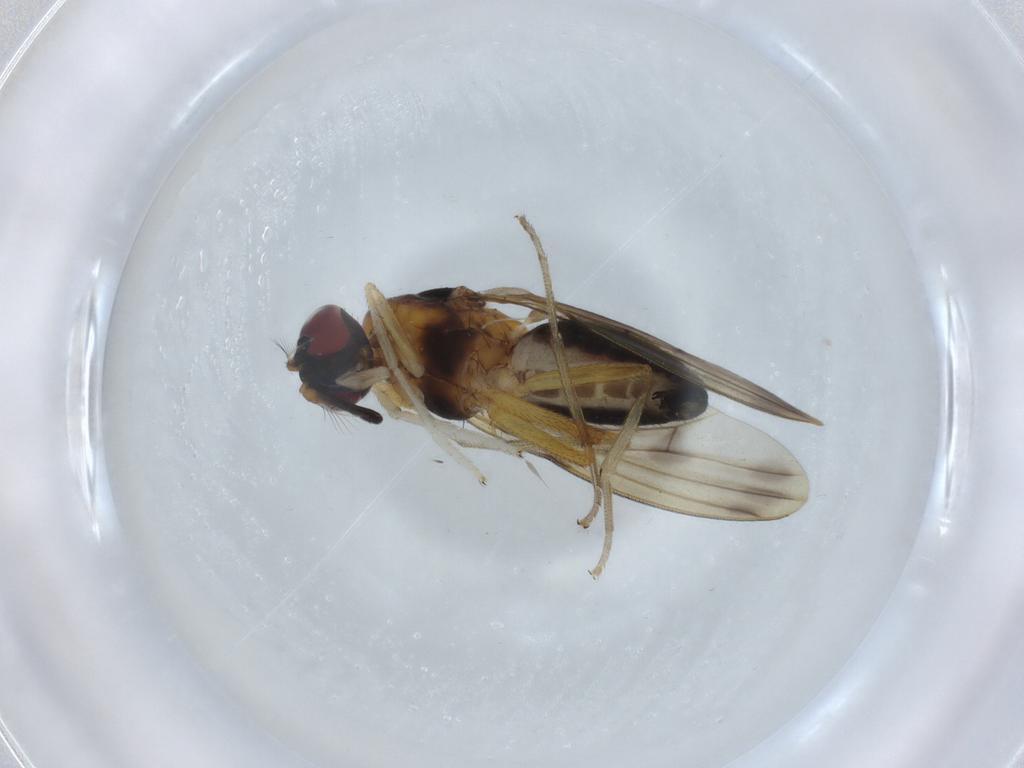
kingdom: Animalia
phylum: Arthropoda
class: Insecta
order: Diptera
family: Phoridae
